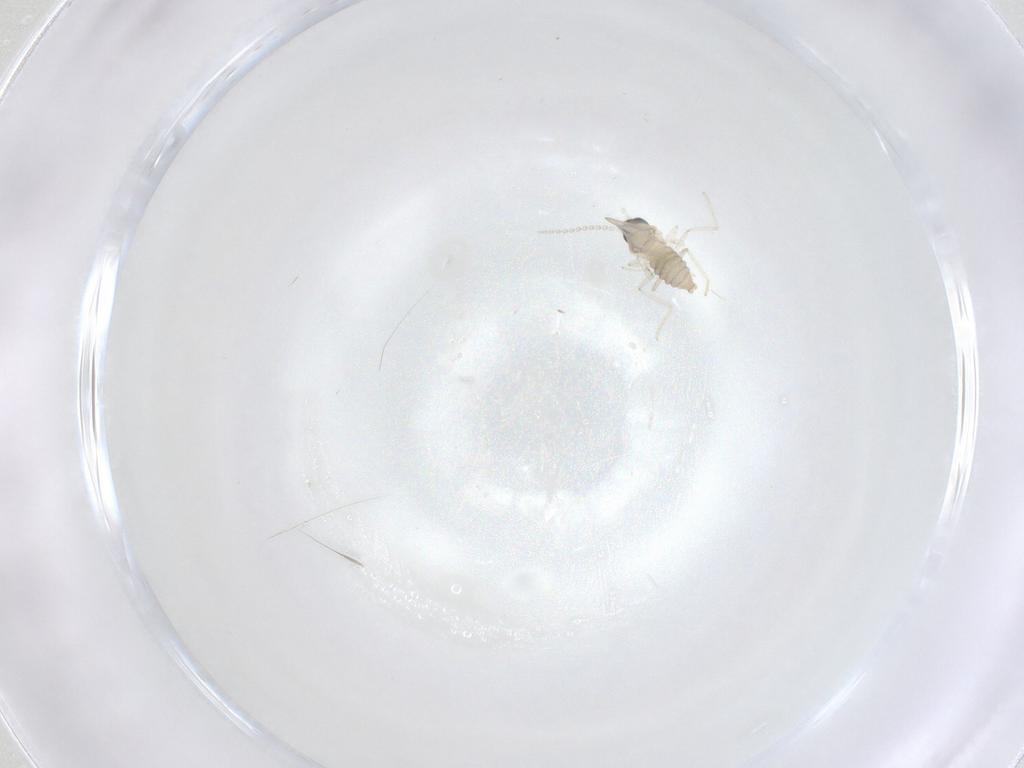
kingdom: Animalia
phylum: Arthropoda
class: Insecta
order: Diptera
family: Cecidomyiidae
